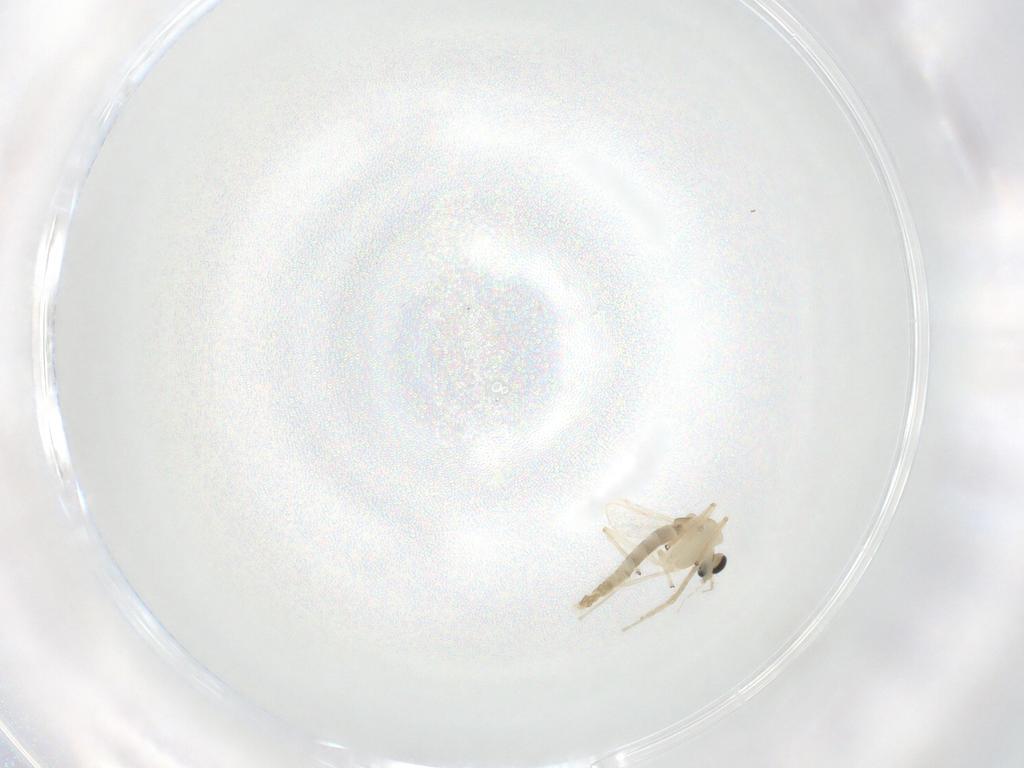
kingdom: Animalia
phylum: Arthropoda
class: Insecta
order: Diptera
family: Chironomidae
